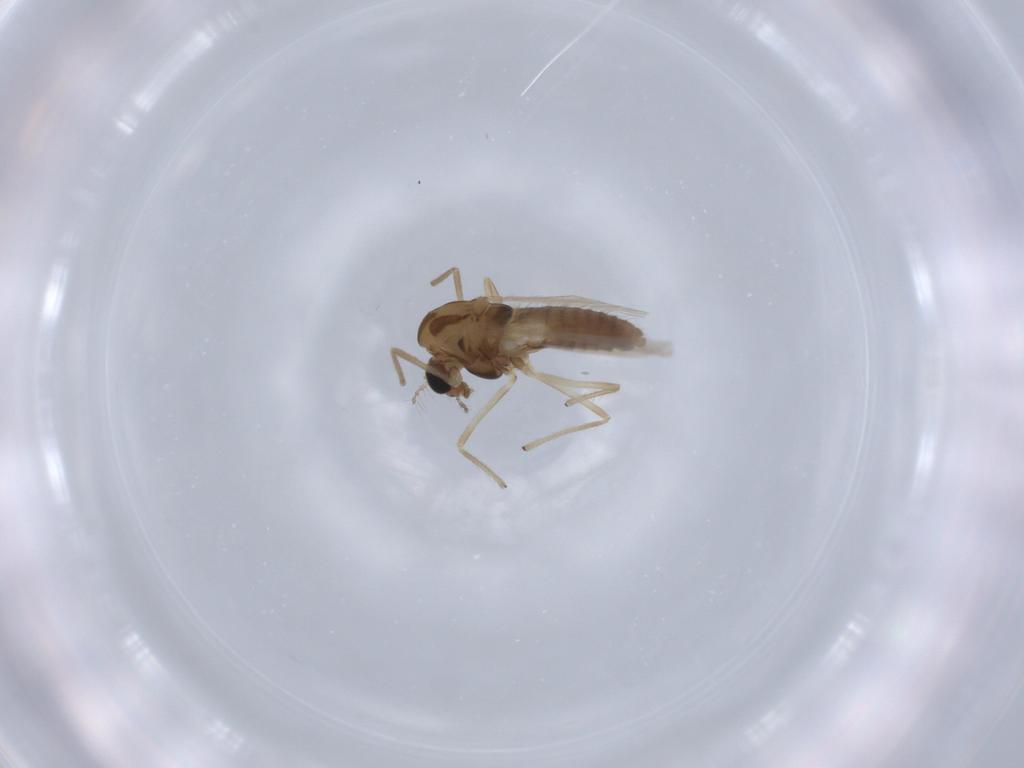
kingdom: Animalia
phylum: Arthropoda
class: Insecta
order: Diptera
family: Chironomidae
